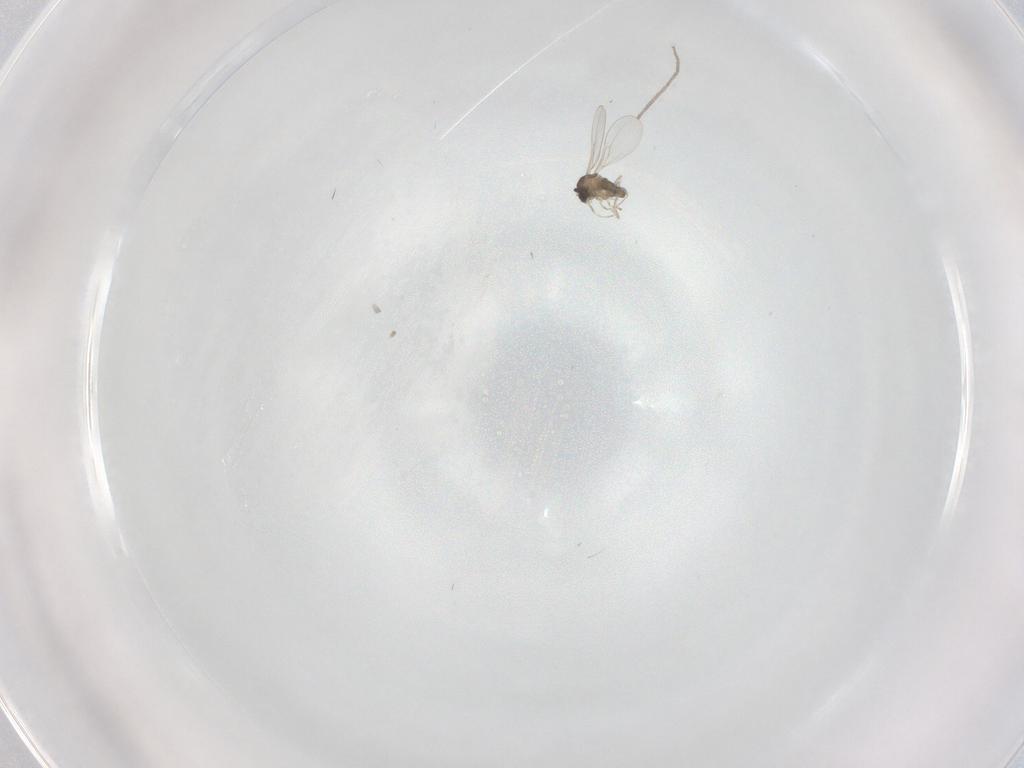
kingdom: Animalia
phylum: Arthropoda
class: Insecta
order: Diptera
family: Cecidomyiidae
